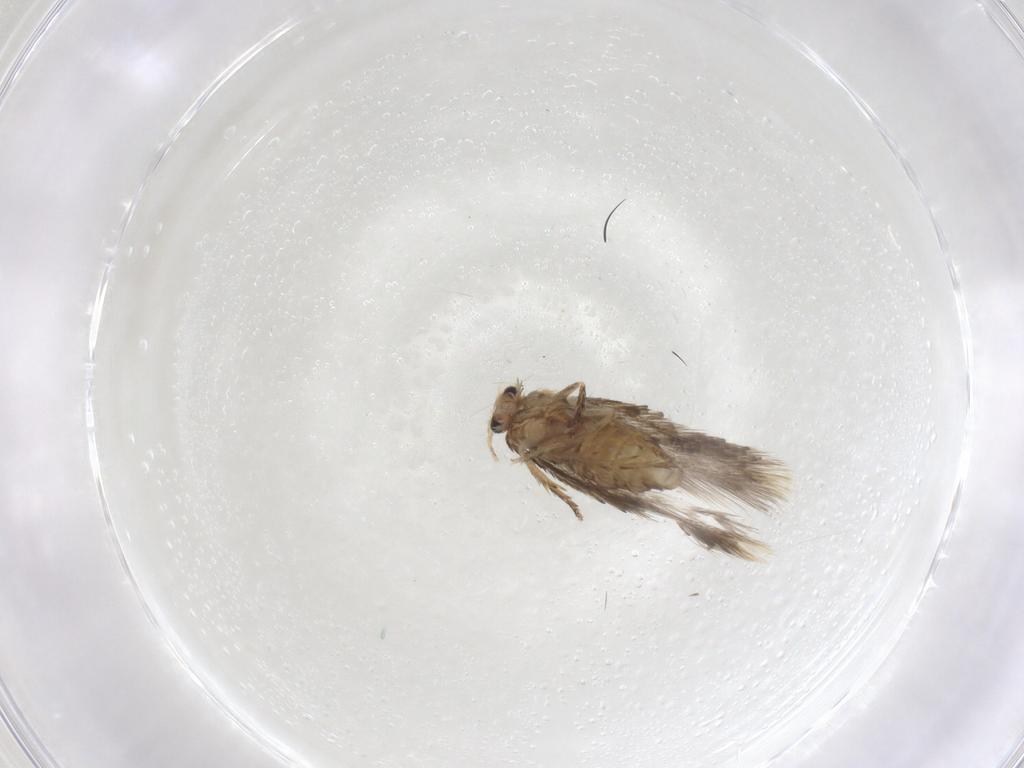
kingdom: Animalia
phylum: Arthropoda
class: Insecta
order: Lepidoptera
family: Nepticulidae
